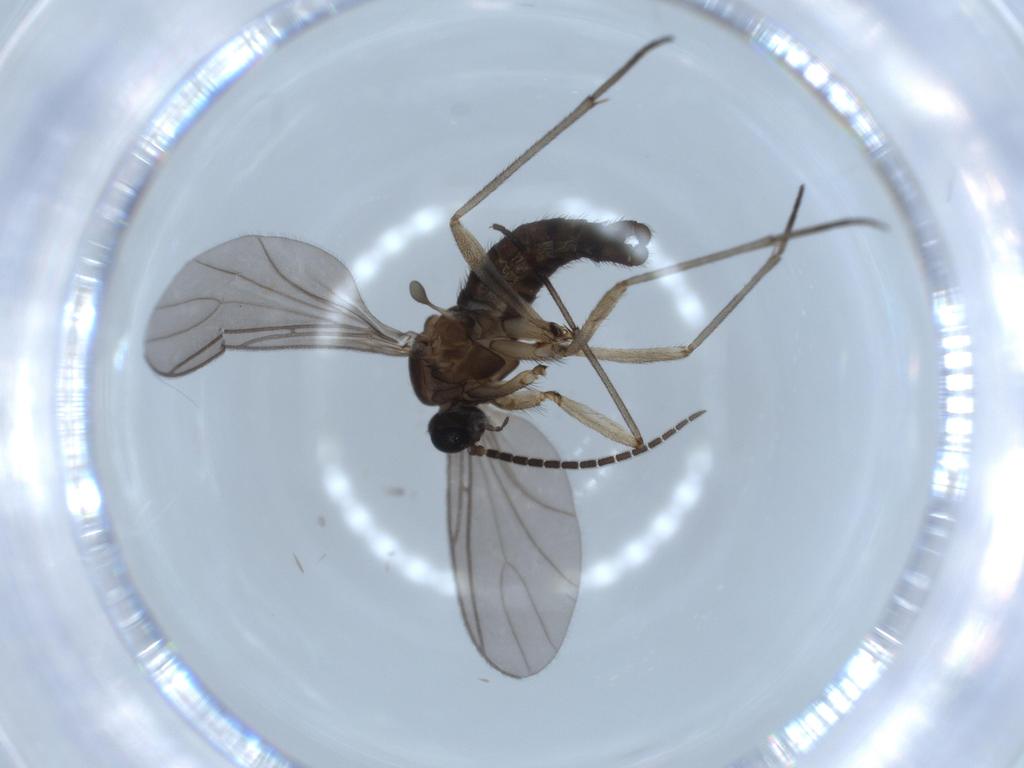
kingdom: Animalia
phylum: Arthropoda
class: Insecta
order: Diptera
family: Sciaridae
